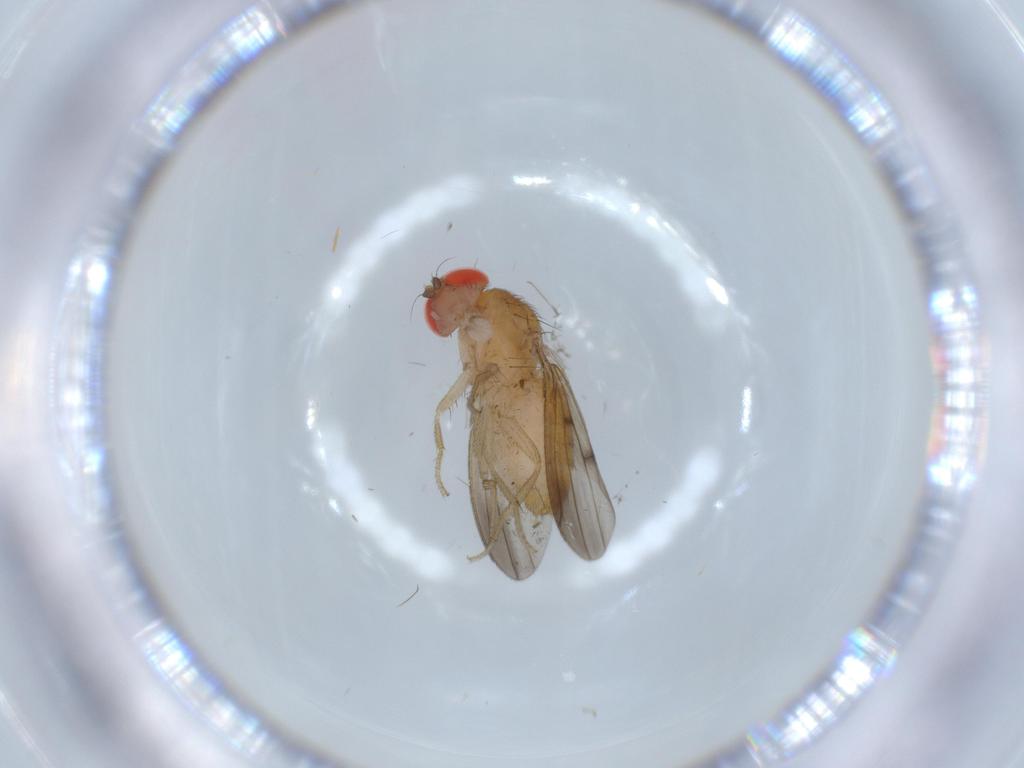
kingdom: Animalia
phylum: Arthropoda
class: Insecta
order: Diptera
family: Drosophilidae
